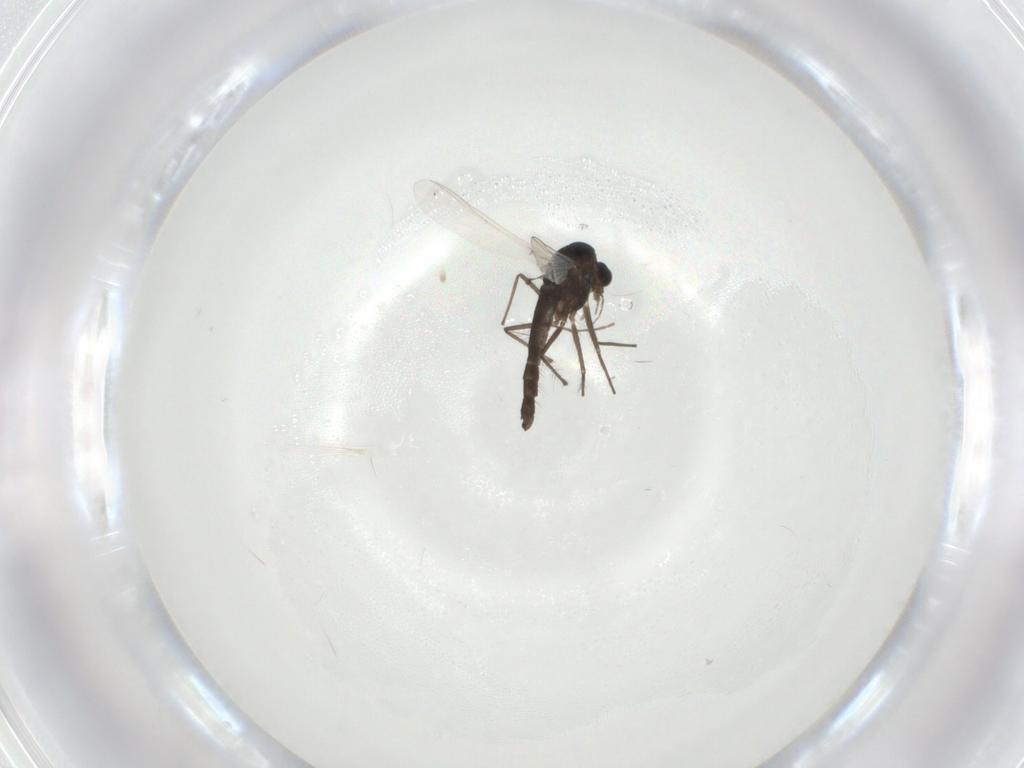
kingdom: Animalia
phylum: Arthropoda
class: Insecta
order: Diptera
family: Chironomidae
